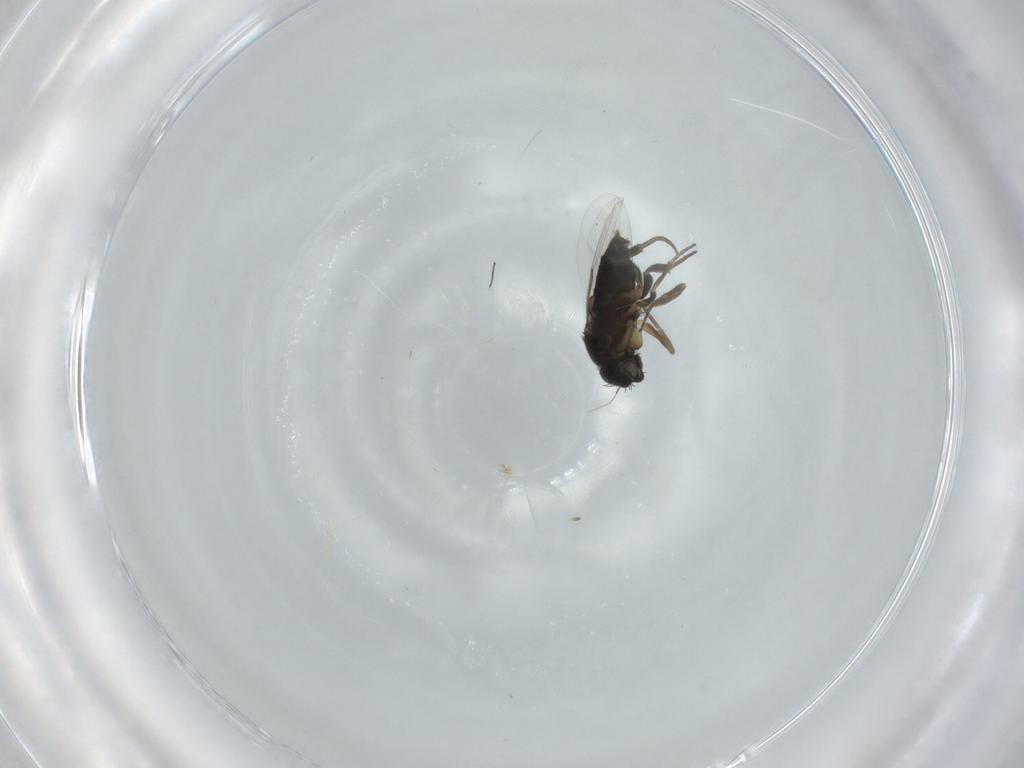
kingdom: Animalia
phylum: Arthropoda
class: Insecta
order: Diptera
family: Phoridae
